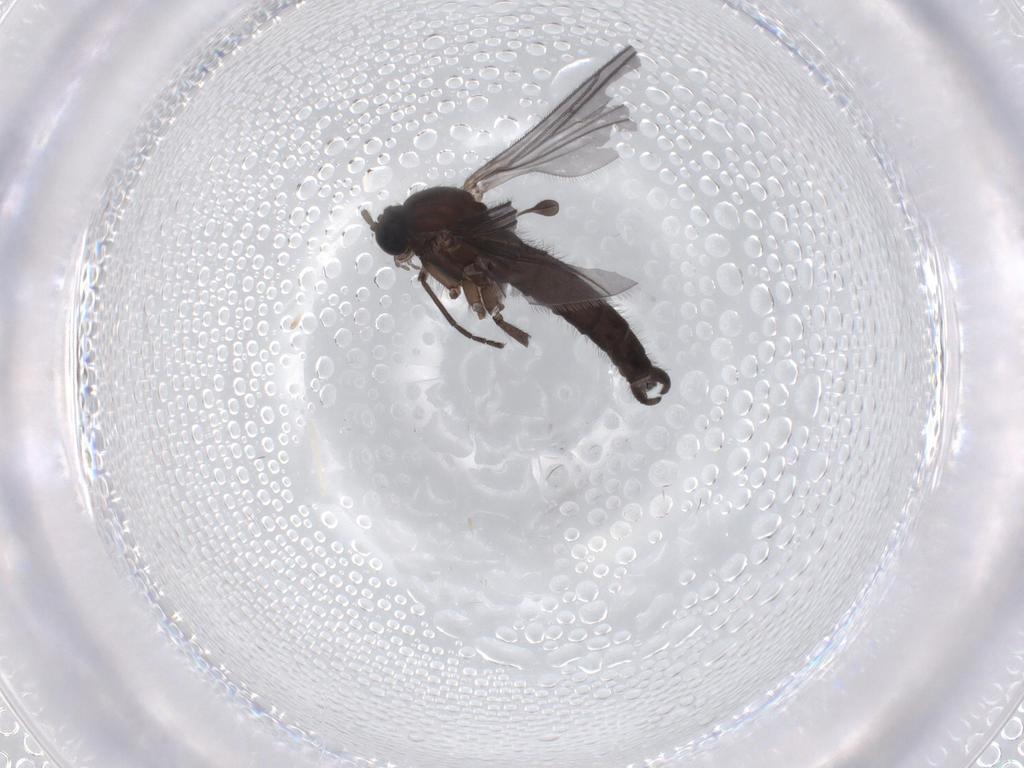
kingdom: Animalia
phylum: Arthropoda
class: Insecta
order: Diptera
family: Sciaridae
